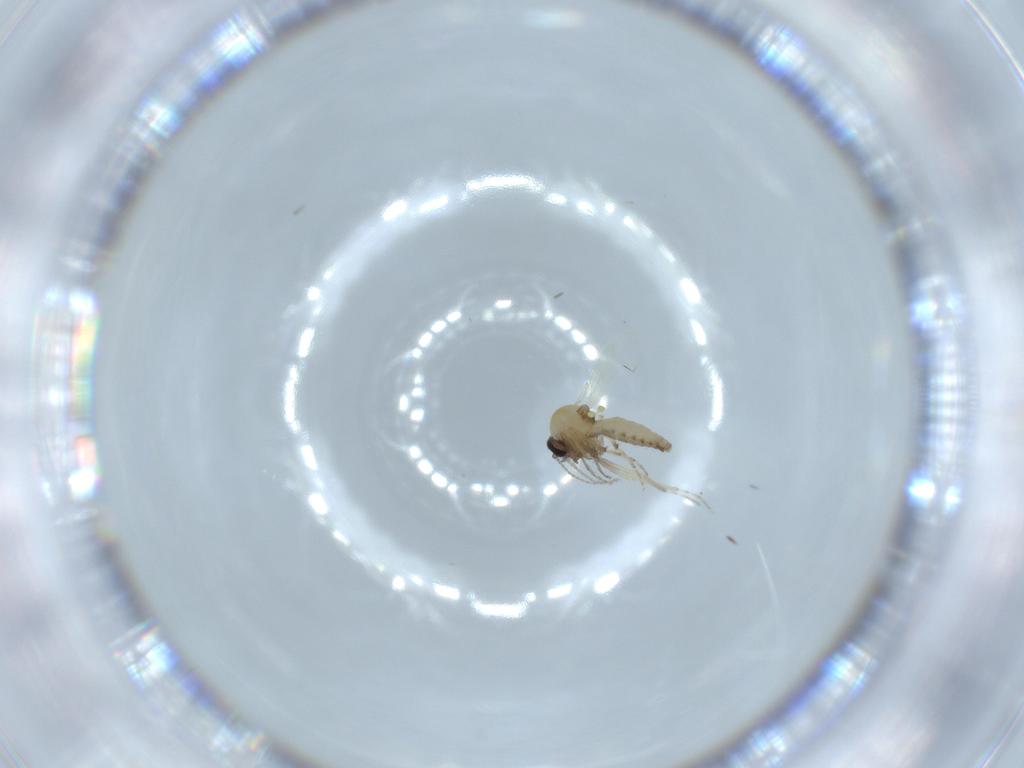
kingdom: Animalia
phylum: Arthropoda
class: Insecta
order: Diptera
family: Ceratopogonidae
